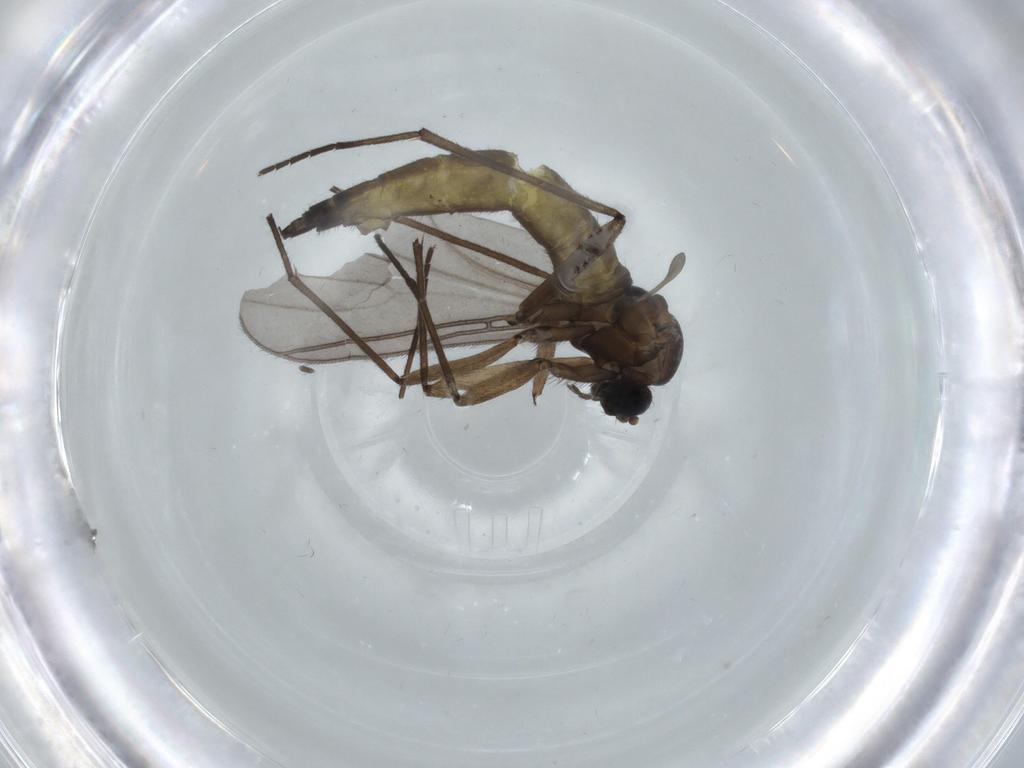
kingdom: Animalia
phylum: Arthropoda
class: Insecta
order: Diptera
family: Sciaridae
